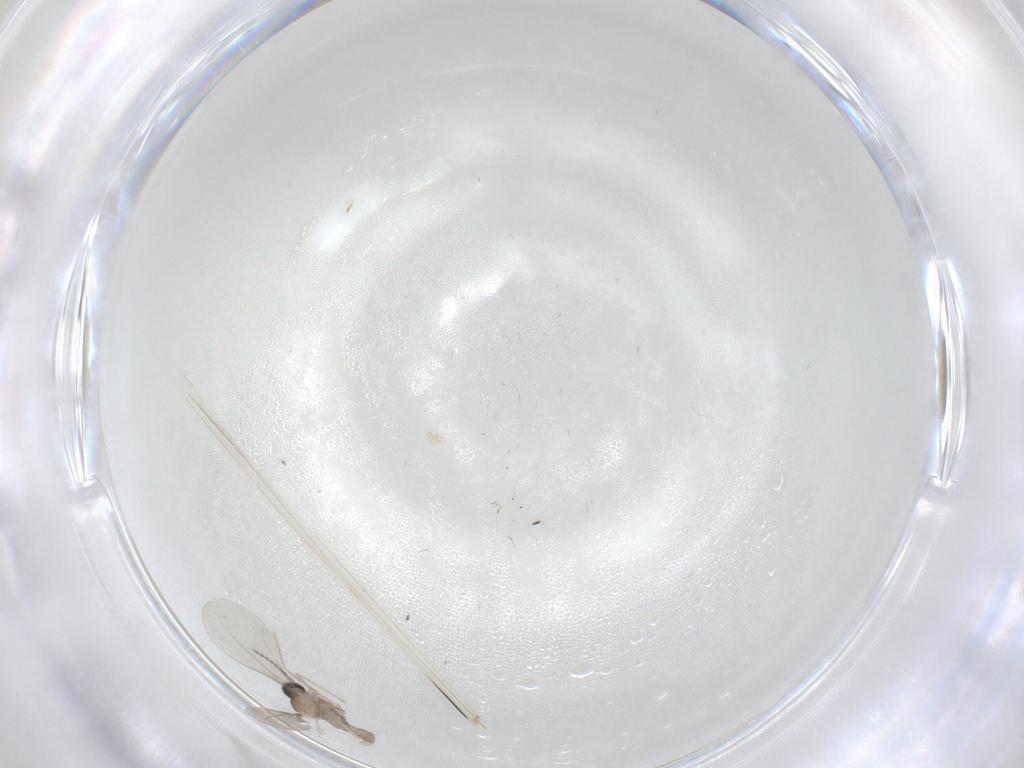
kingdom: Animalia
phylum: Arthropoda
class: Insecta
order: Diptera
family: Cecidomyiidae
